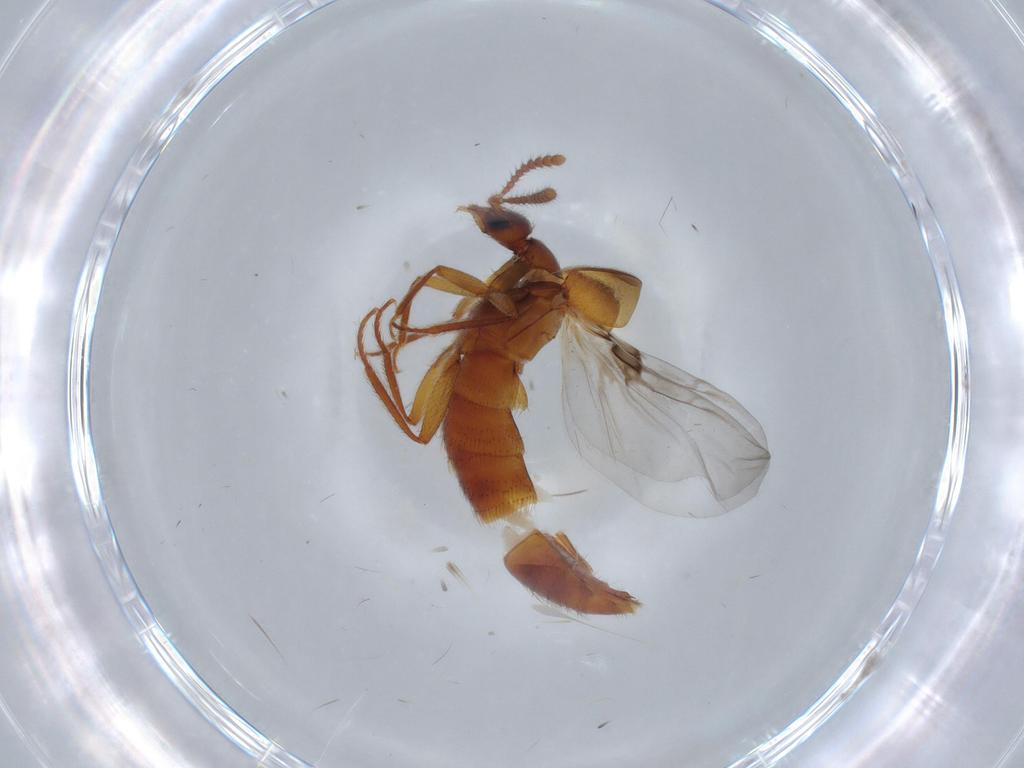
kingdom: Animalia
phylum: Arthropoda
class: Insecta
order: Coleoptera
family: Staphylinidae
